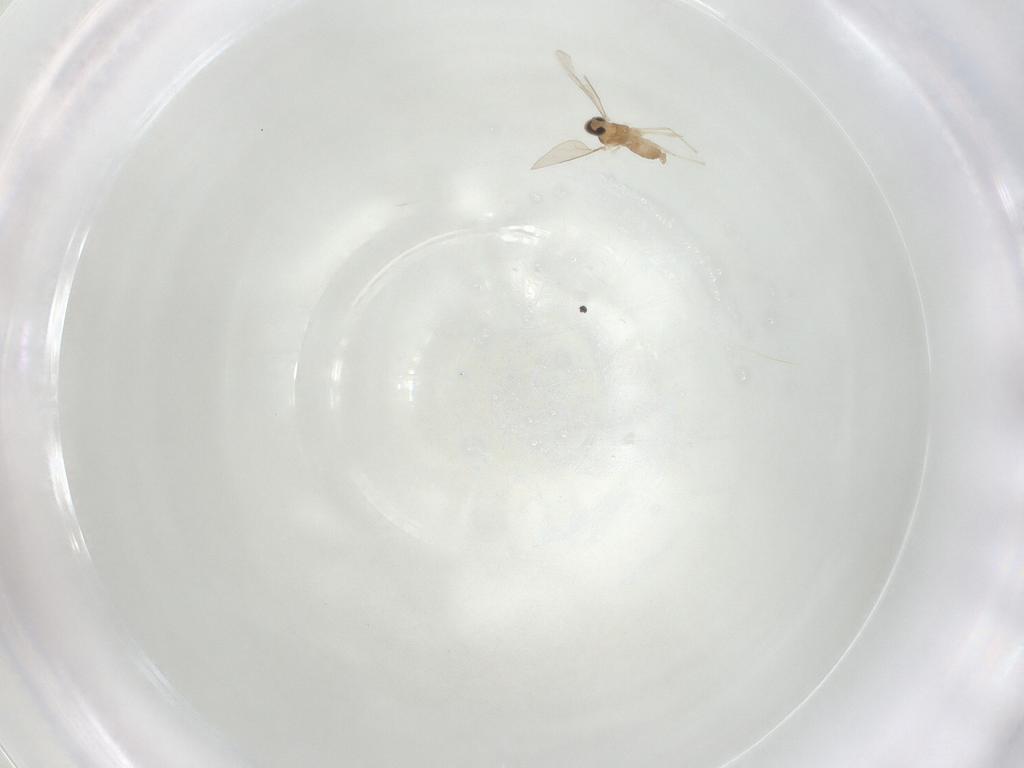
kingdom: Animalia
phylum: Arthropoda
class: Insecta
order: Diptera
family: Cecidomyiidae
